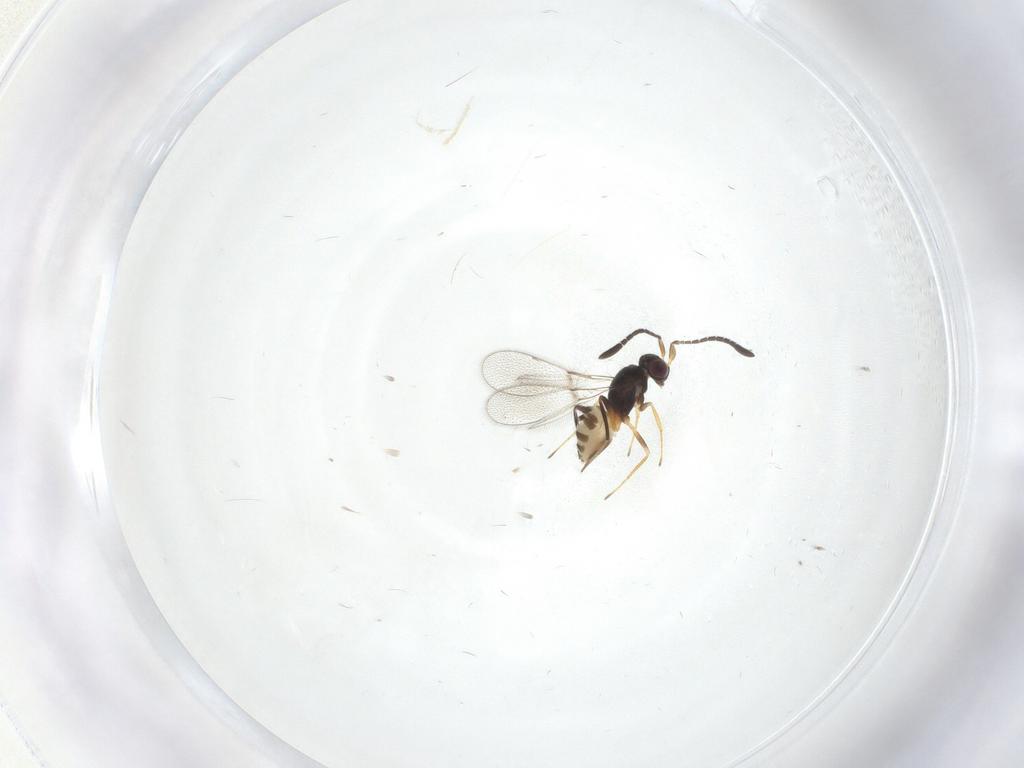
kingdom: Animalia
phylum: Arthropoda
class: Insecta
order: Hymenoptera
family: Mymaridae
